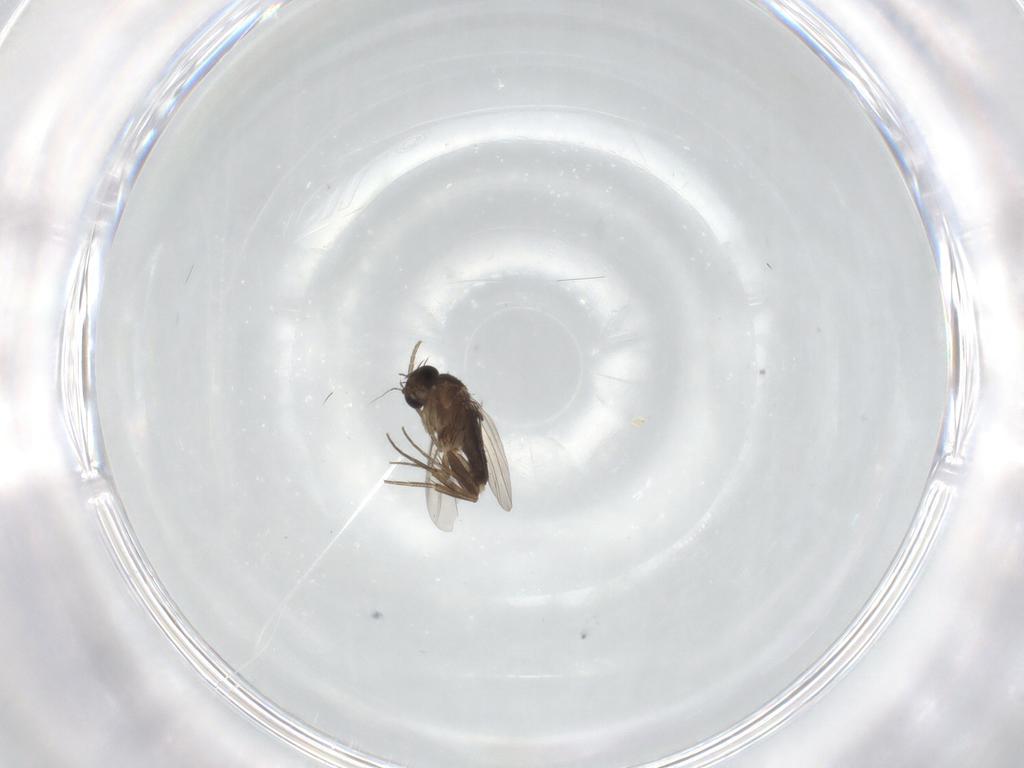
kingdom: Animalia
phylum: Arthropoda
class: Insecta
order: Diptera
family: Phoridae
